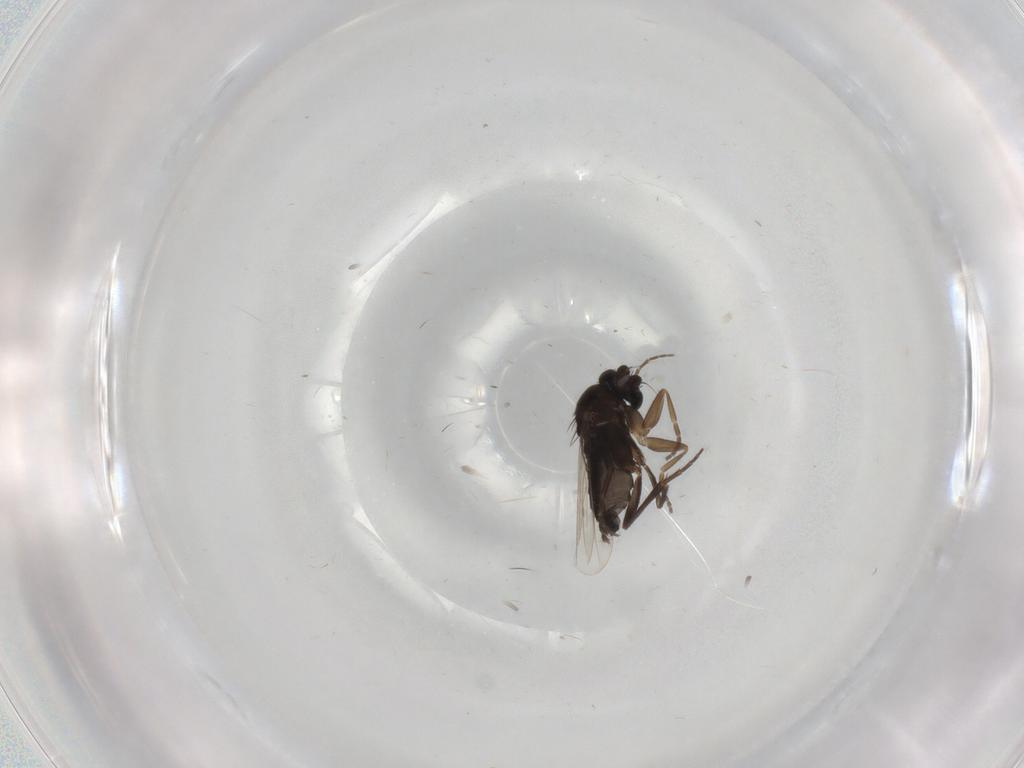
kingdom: Animalia
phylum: Arthropoda
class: Insecta
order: Diptera
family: Phoridae
